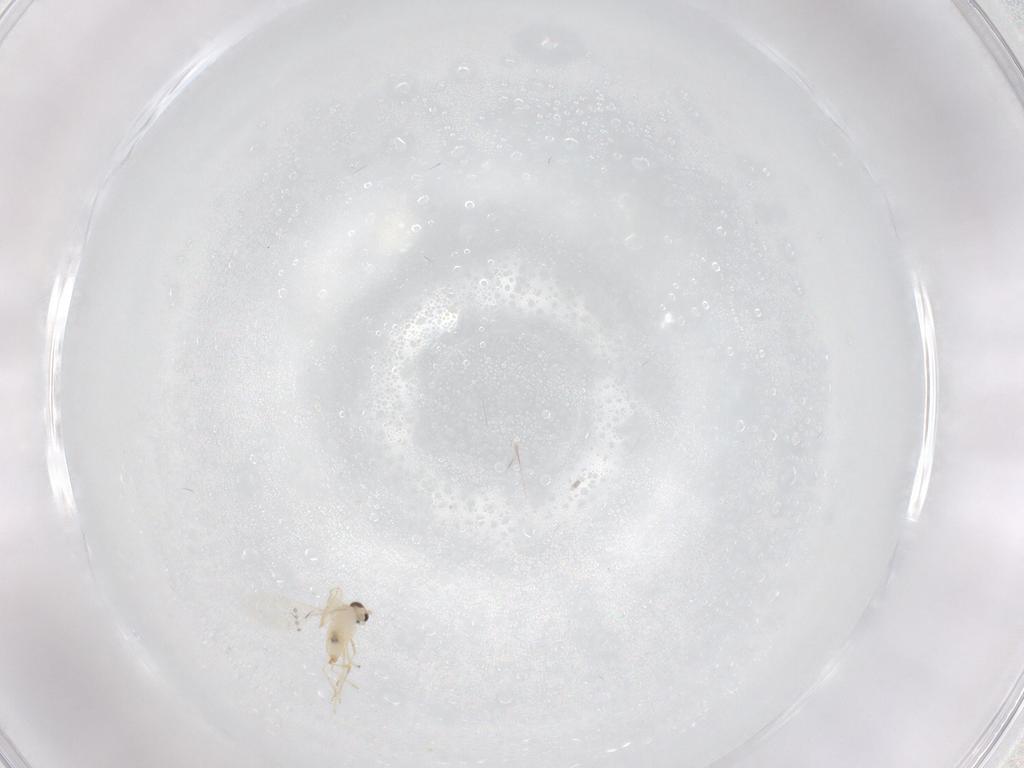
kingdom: Animalia
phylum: Arthropoda
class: Insecta
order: Diptera
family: Cecidomyiidae
